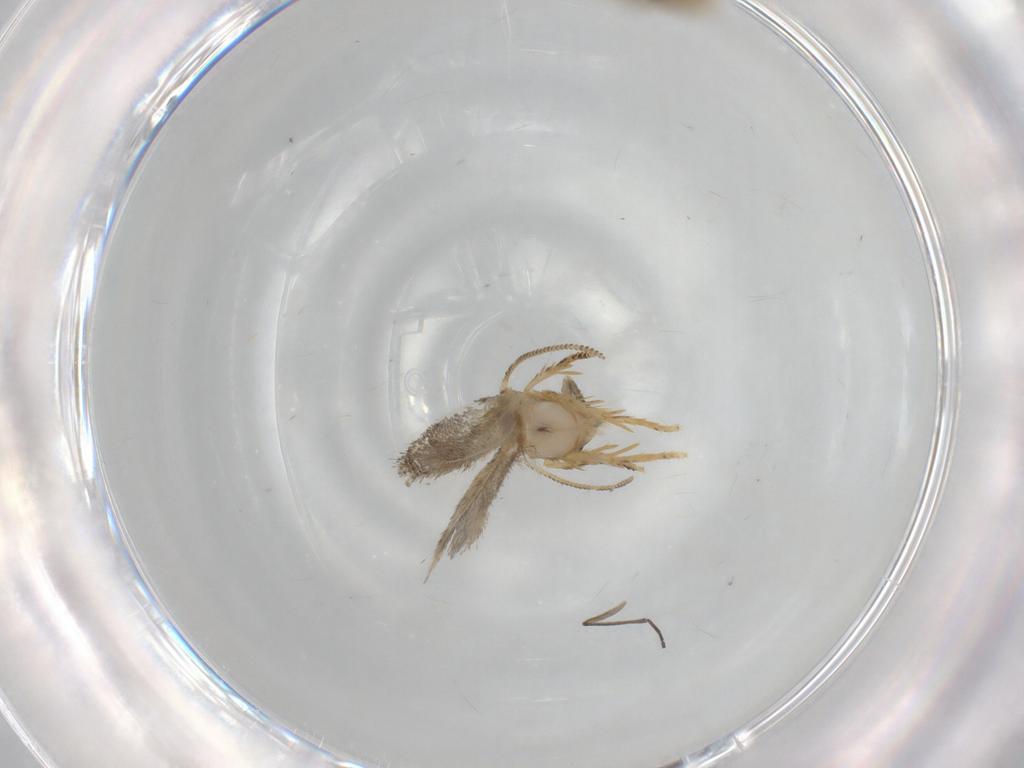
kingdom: Animalia
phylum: Arthropoda
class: Insecta
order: Lepidoptera
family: Nepticulidae
